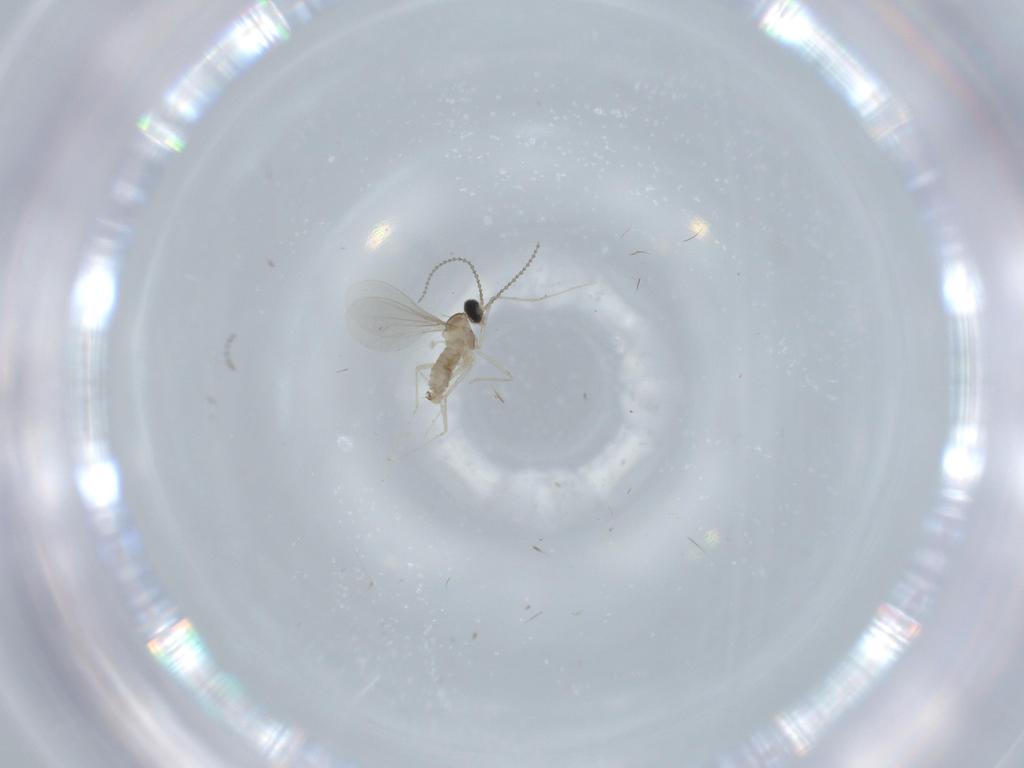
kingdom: Animalia
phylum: Arthropoda
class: Insecta
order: Diptera
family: Cecidomyiidae
